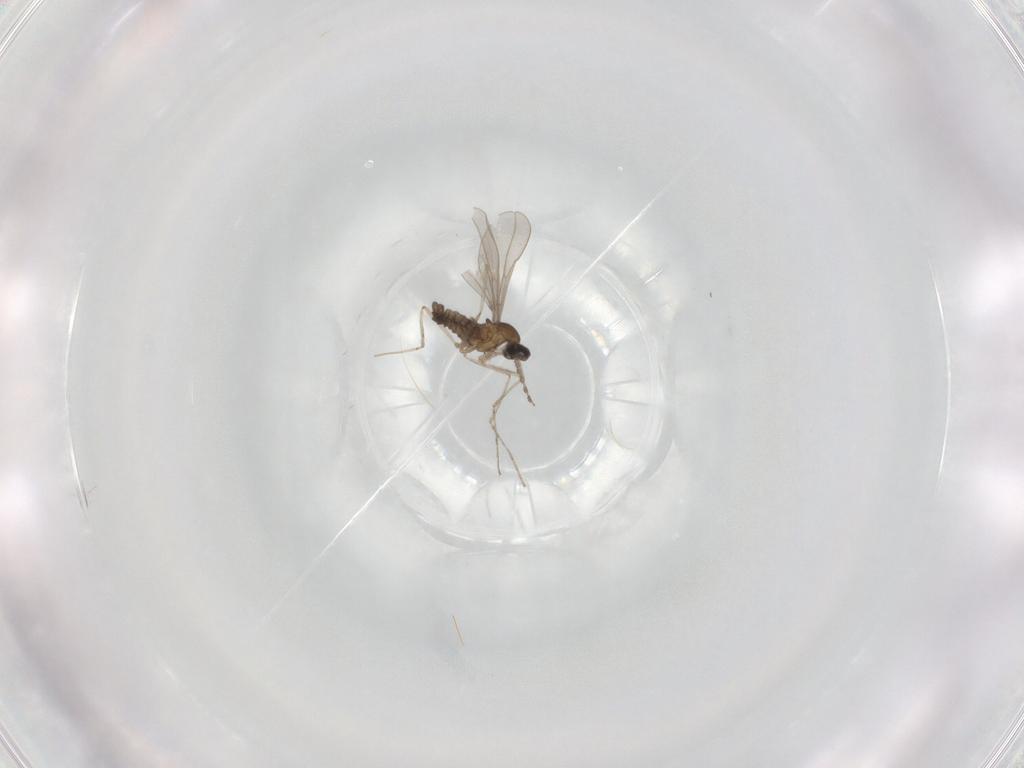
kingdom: Animalia
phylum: Arthropoda
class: Insecta
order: Diptera
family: Cecidomyiidae
